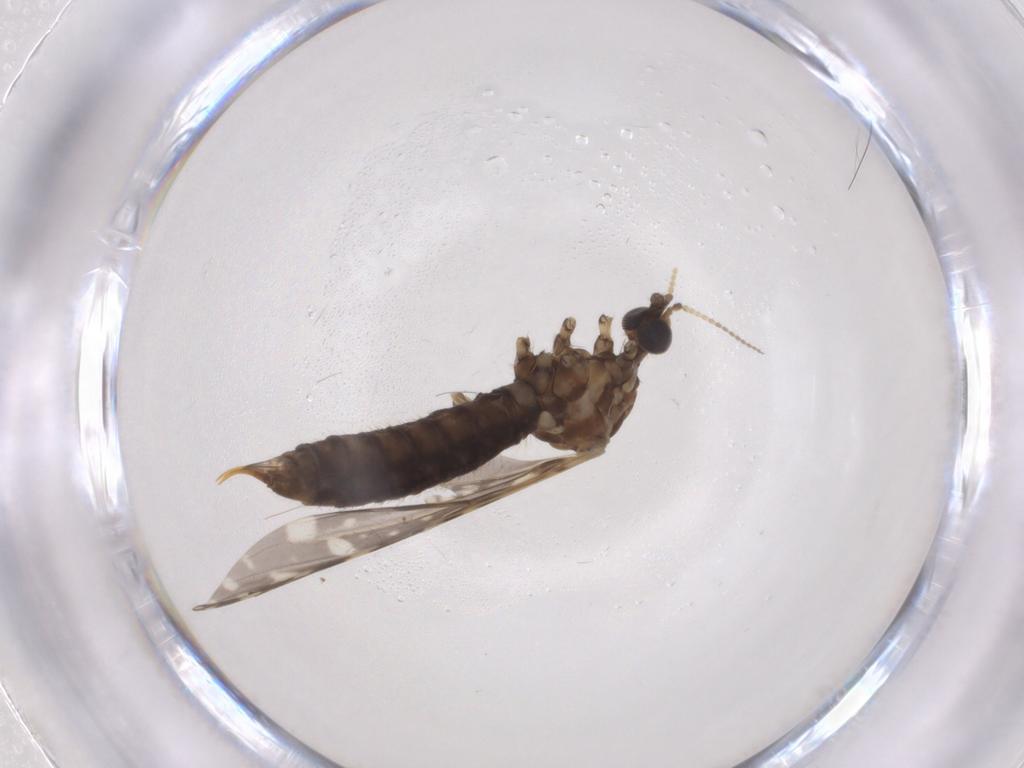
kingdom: Animalia
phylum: Arthropoda
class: Insecta
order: Diptera
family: Limoniidae
